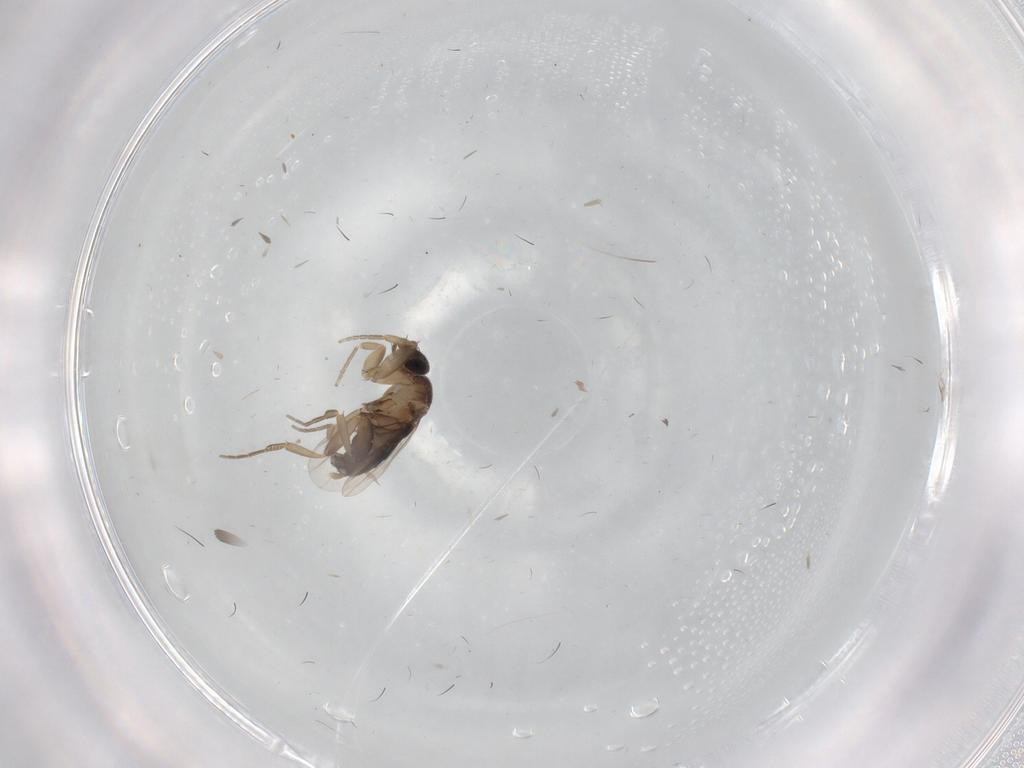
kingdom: Animalia
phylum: Arthropoda
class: Insecta
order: Diptera
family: Phoridae
